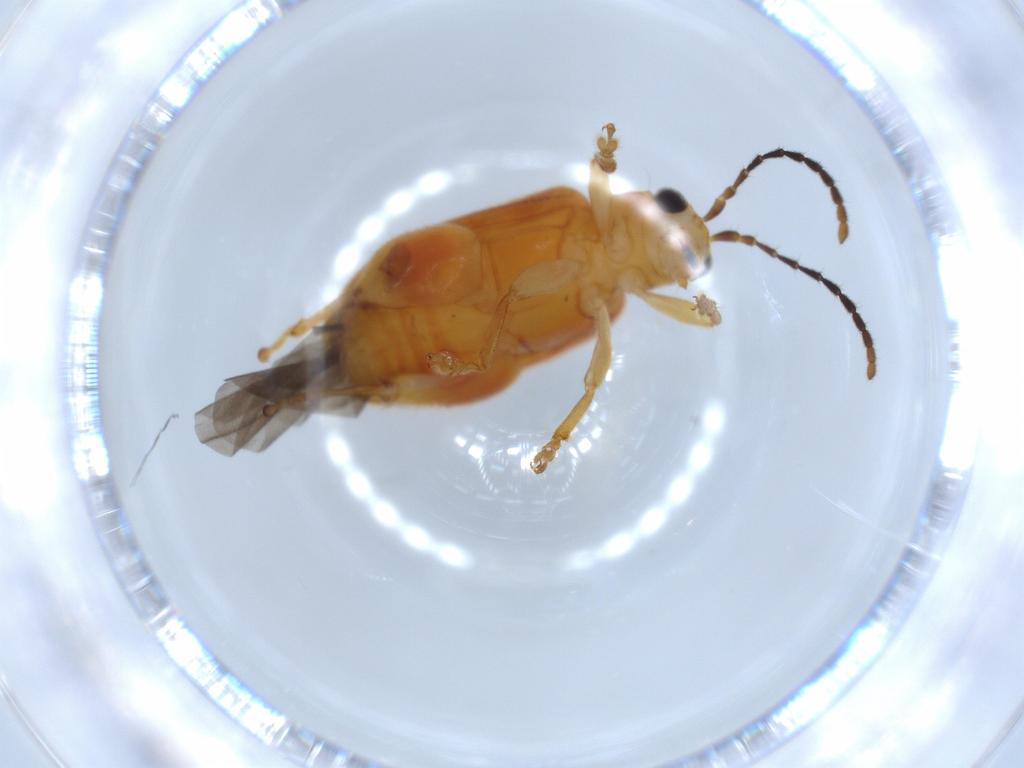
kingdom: Animalia
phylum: Arthropoda
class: Insecta
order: Coleoptera
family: Chrysomelidae
